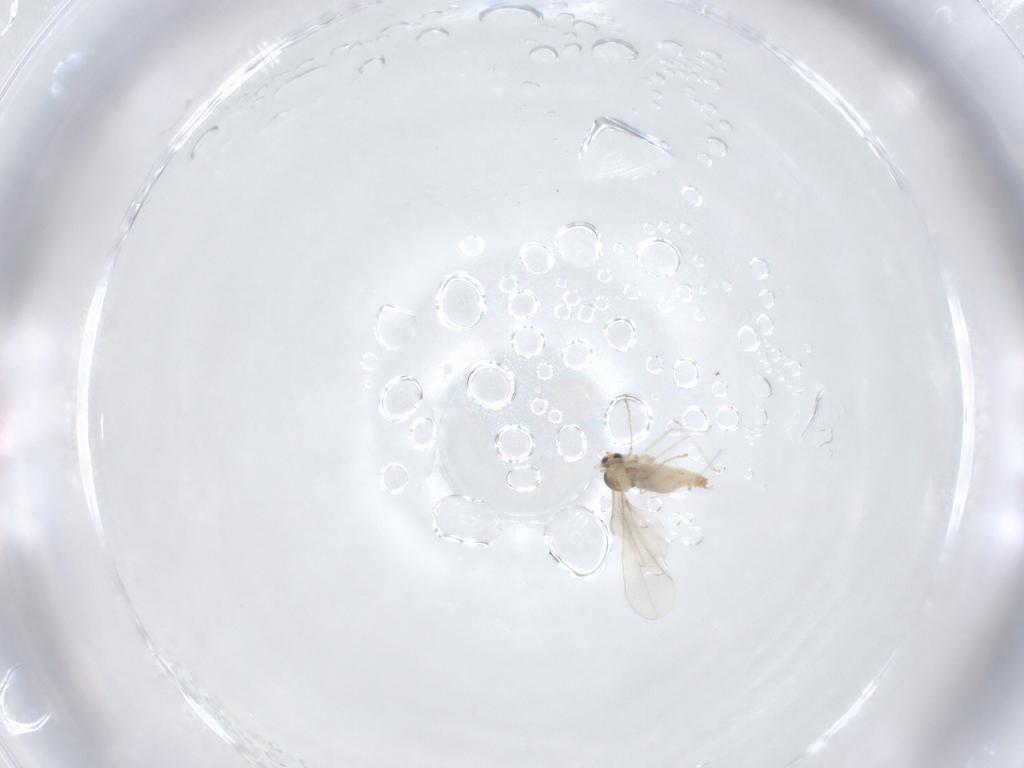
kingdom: Animalia
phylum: Arthropoda
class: Insecta
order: Diptera
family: Cecidomyiidae
